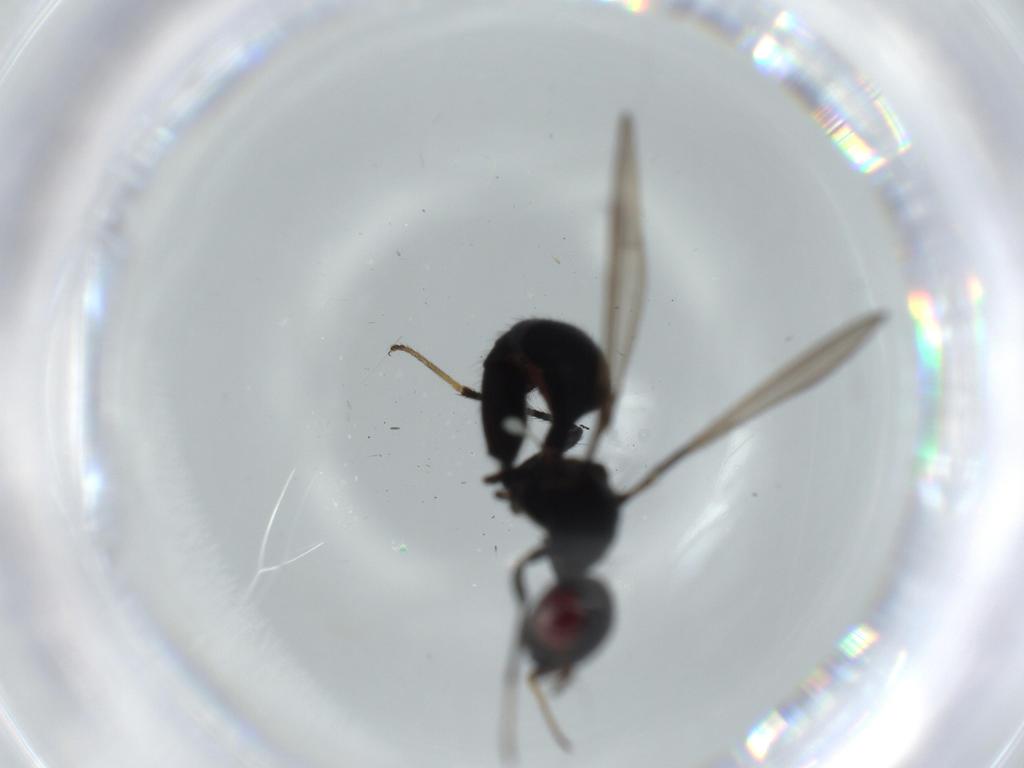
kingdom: Animalia
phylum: Arthropoda
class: Insecta
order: Diptera
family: Richardiidae
